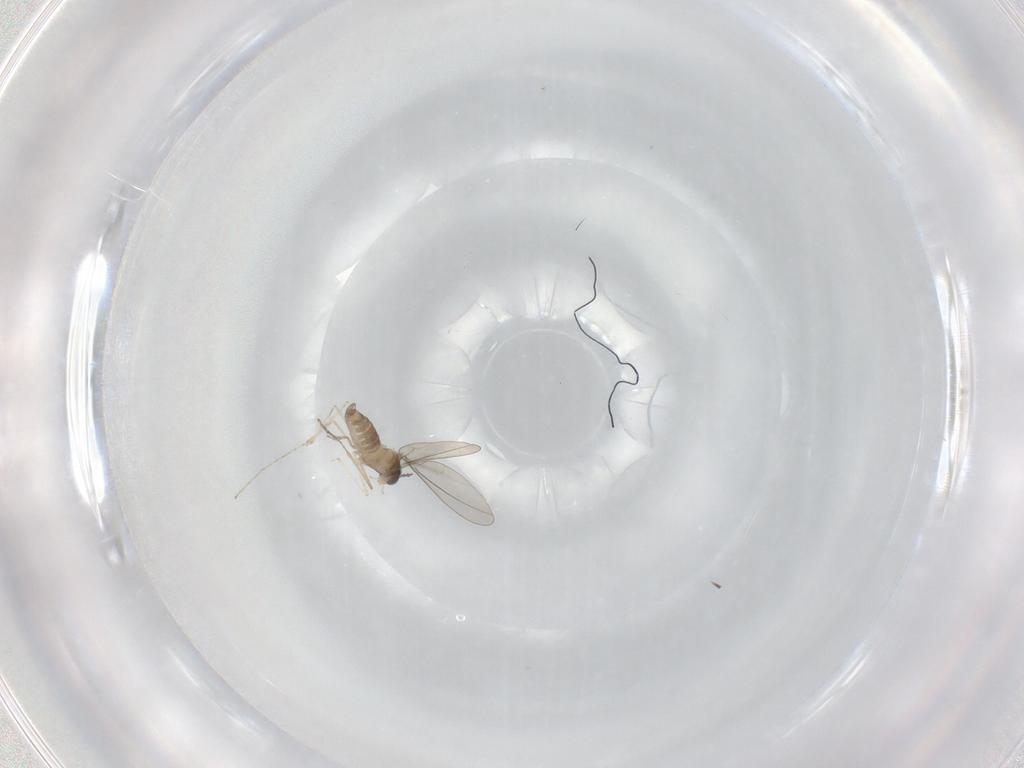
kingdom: Animalia
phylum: Arthropoda
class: Insecta
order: Diptera
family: Cecidomyiidae
